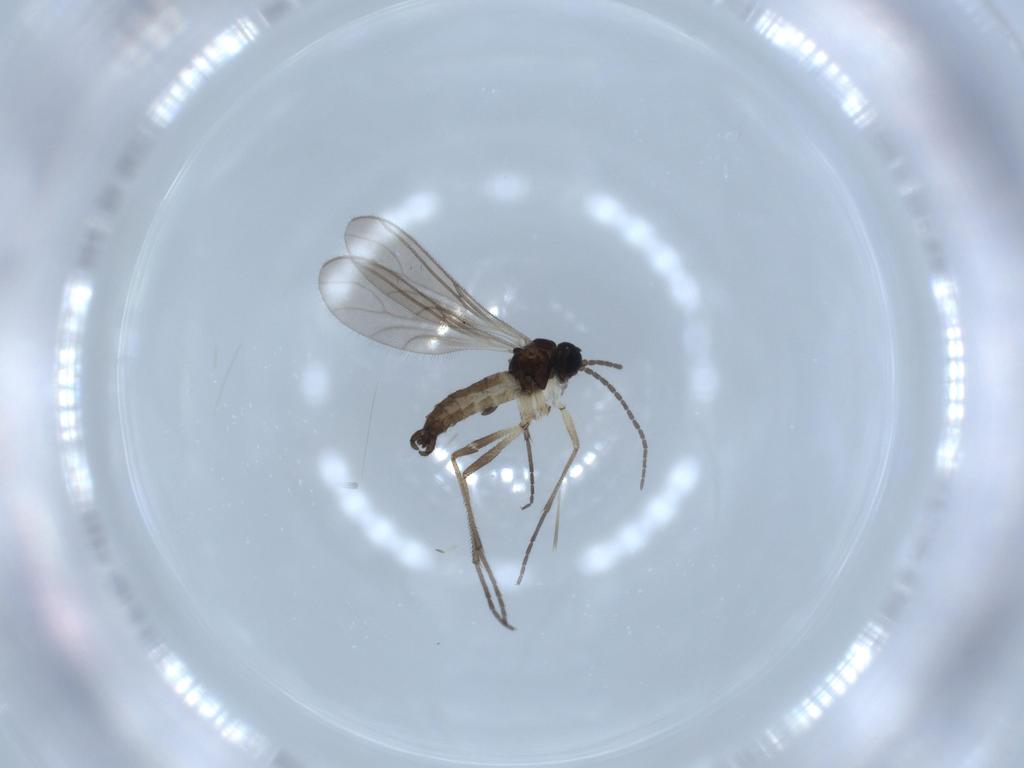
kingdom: Animalia
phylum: Arthropoda
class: Insecta
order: Diptera
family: Sciaridae
